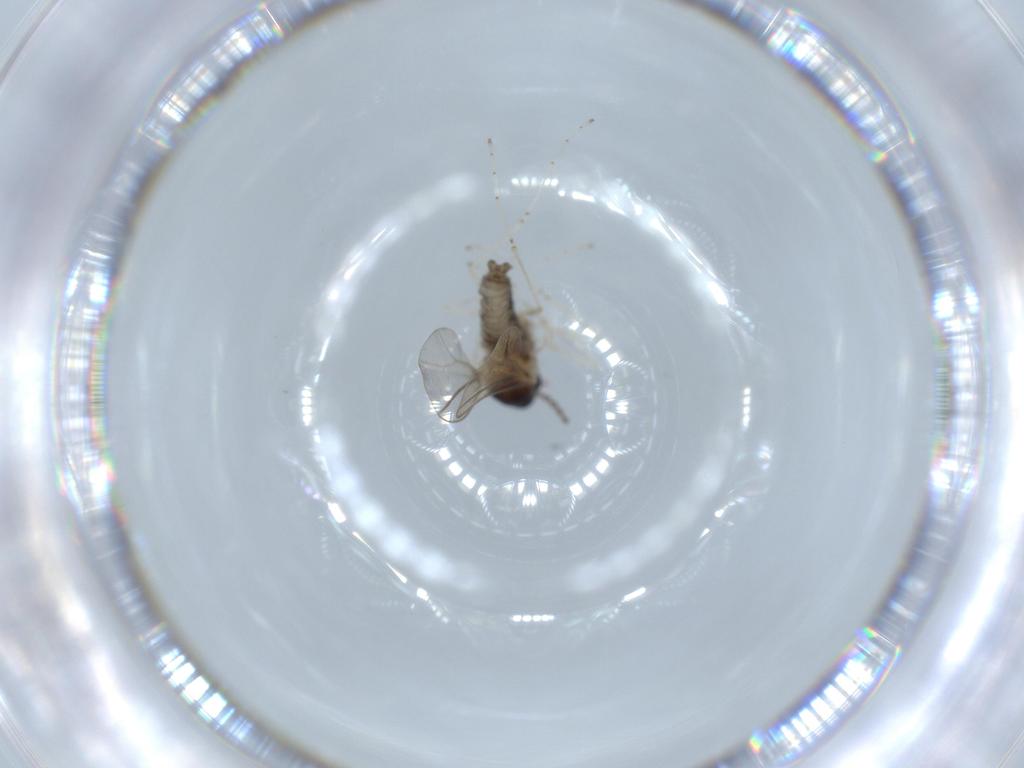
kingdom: Animalia
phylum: Arthropoda
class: Insecta
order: Diptera
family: Cecidomyiidae
